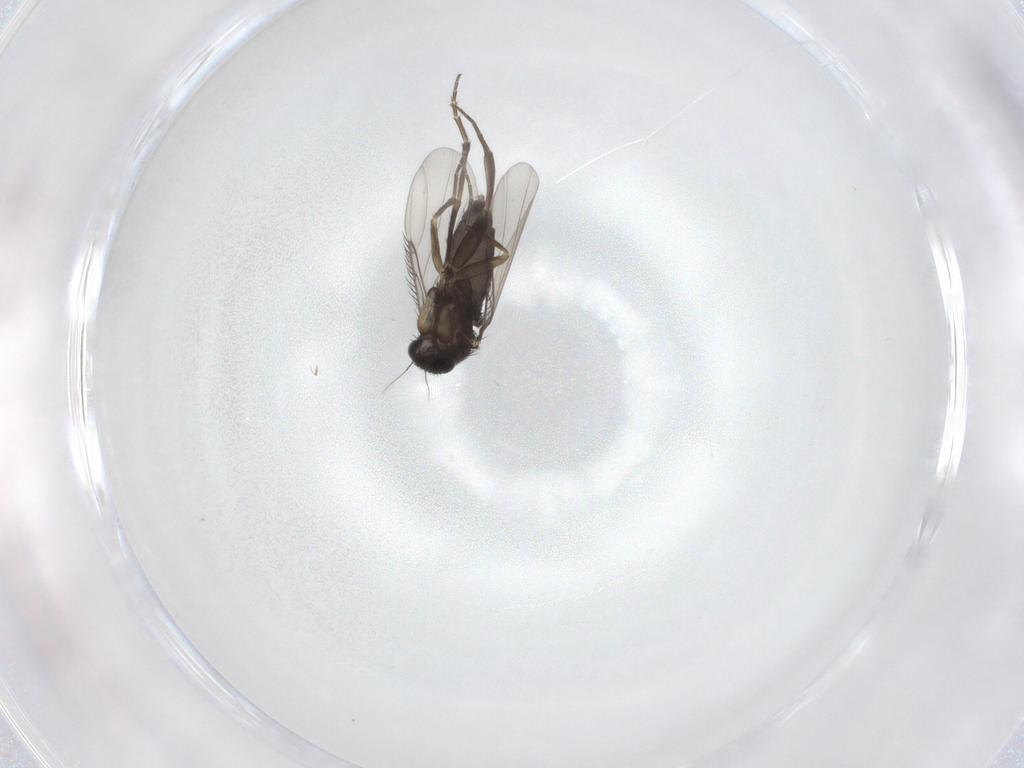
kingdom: Animalia
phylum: Arthropoda
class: Insecta
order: Diptera
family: Phoridae
